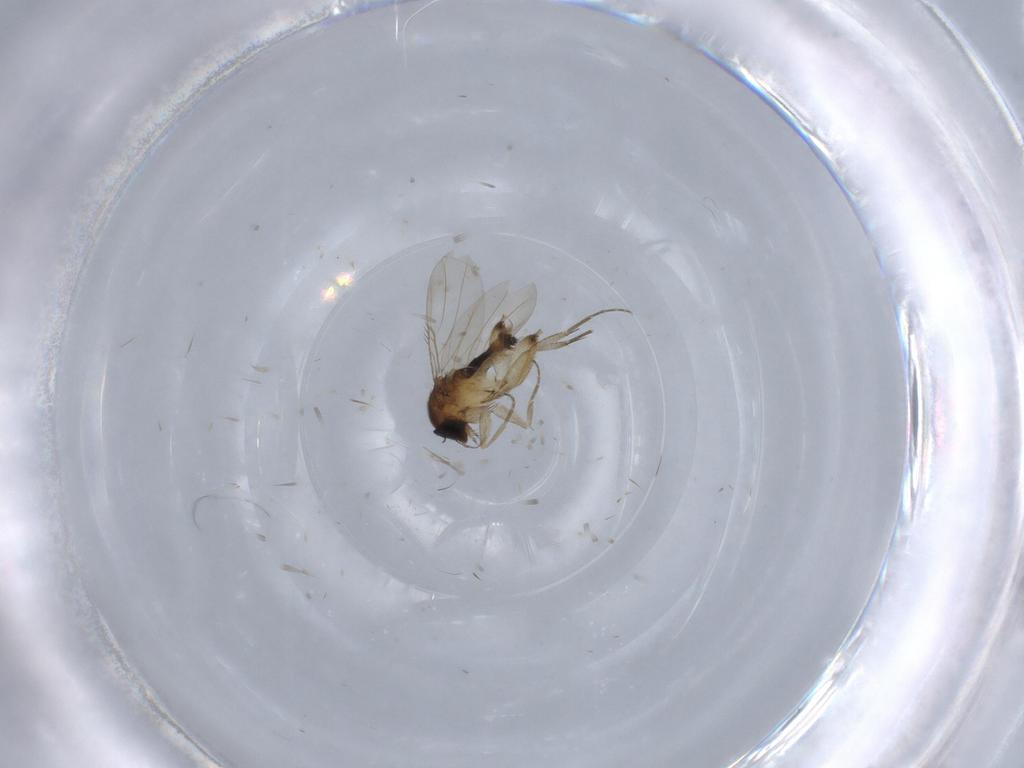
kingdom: Animalia
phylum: Arthropoda
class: Insecta
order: Diptera
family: Phoridae
